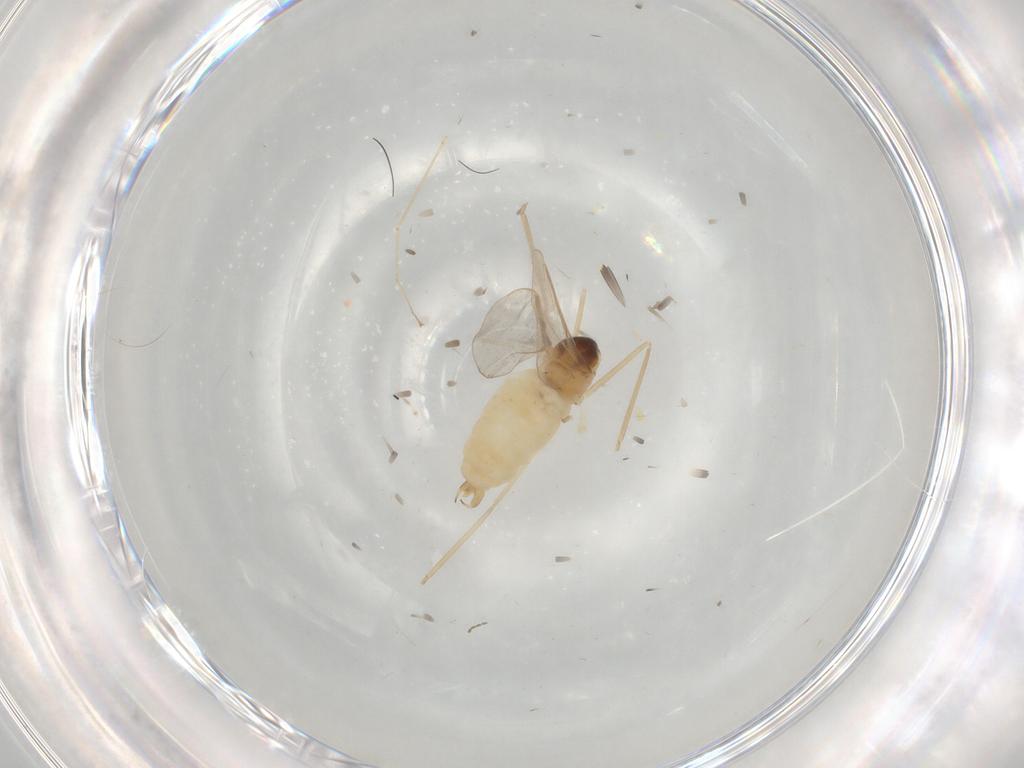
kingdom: Animalia
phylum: Arthropoda
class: Insecta
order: Diptera
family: Cecidomyiidae
